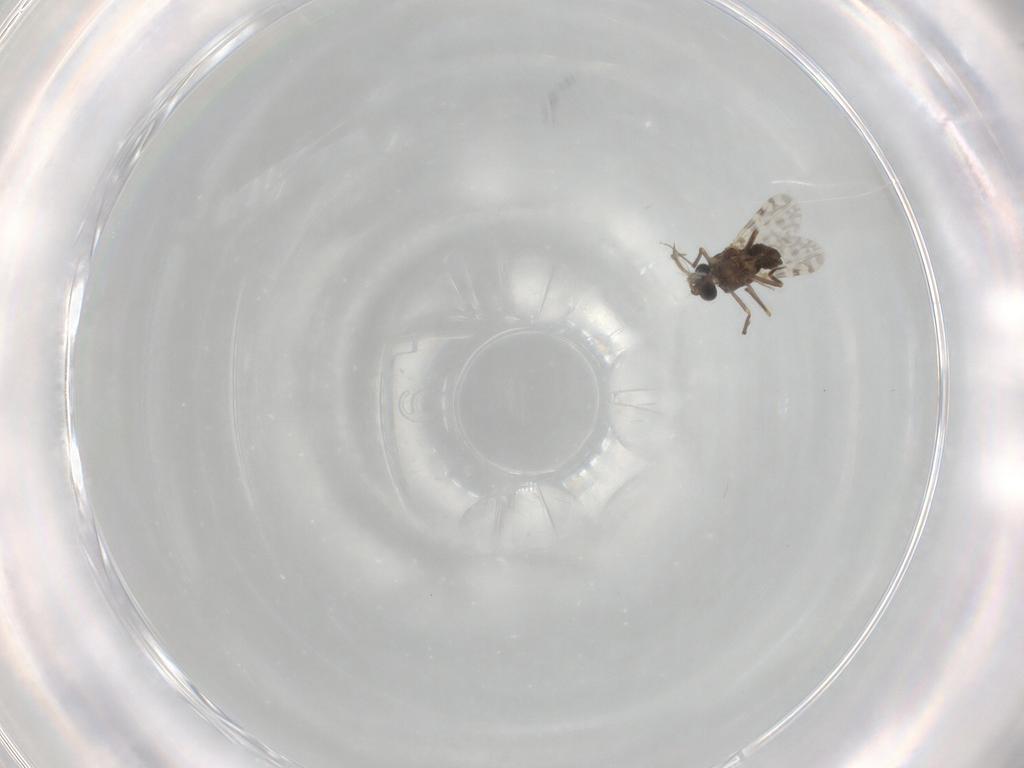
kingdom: Animalia
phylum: Arthropoda
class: Insecta
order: Diptera
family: Ceratopogonidae
